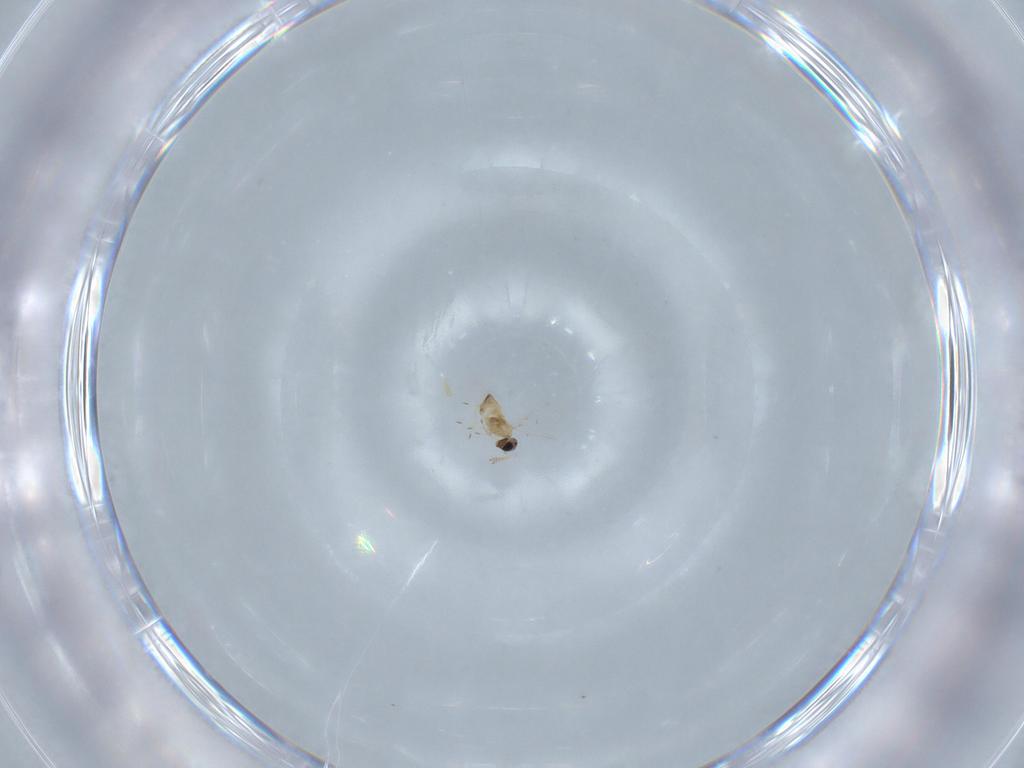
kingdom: Animalia
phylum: Arthropoda
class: Insecta
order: Hymenoptera
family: Trichogrammatidae
